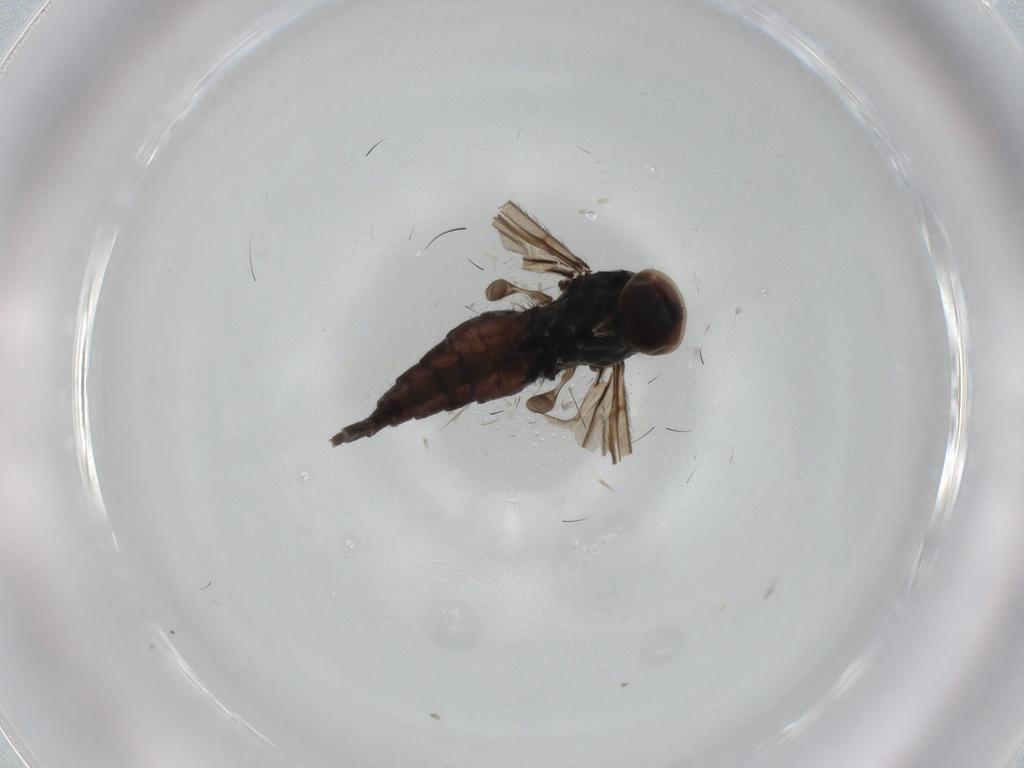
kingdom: Animalia
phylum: Arthropoda
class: Insecta
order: Diptera
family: Hybotidae
